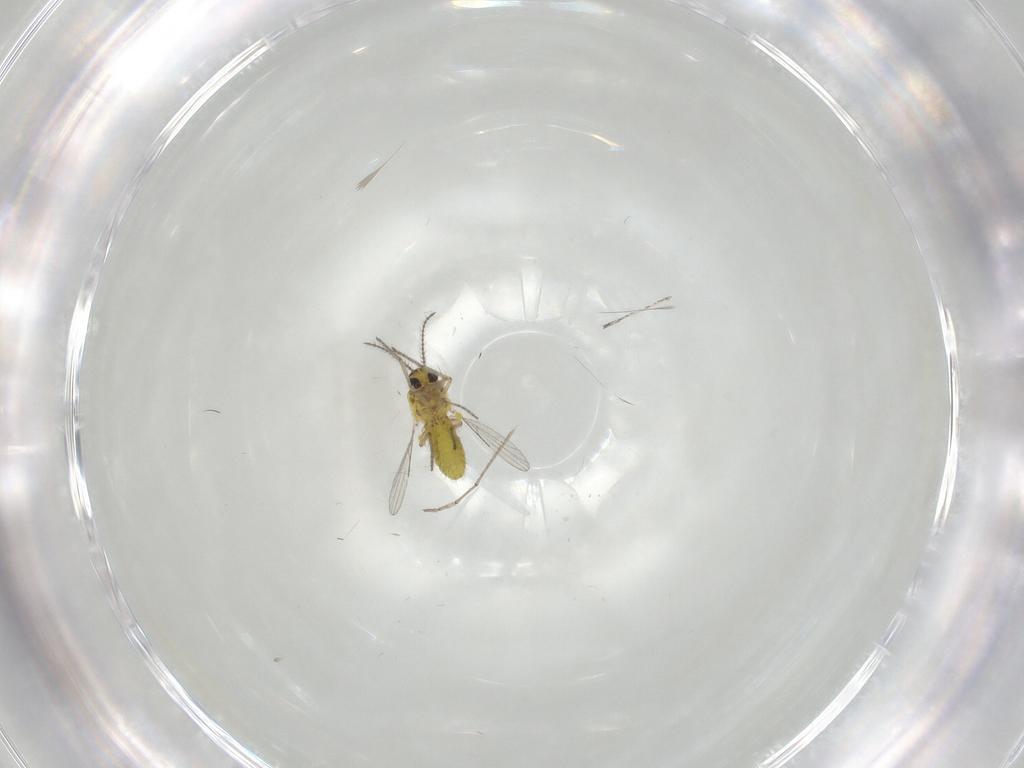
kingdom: Animalia
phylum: Arthropoda
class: Insecta
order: Diptera
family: Ceratopogonidae
